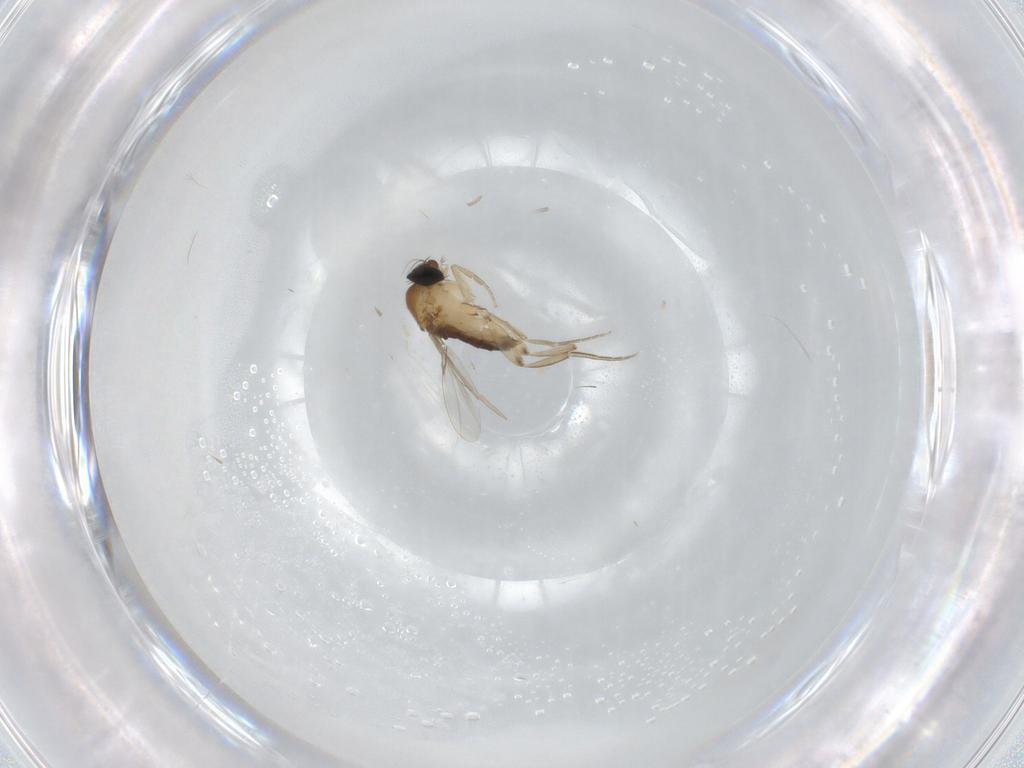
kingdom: Animalia
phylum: Arthropoda
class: Insecta
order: Diptera
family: Phoridae
